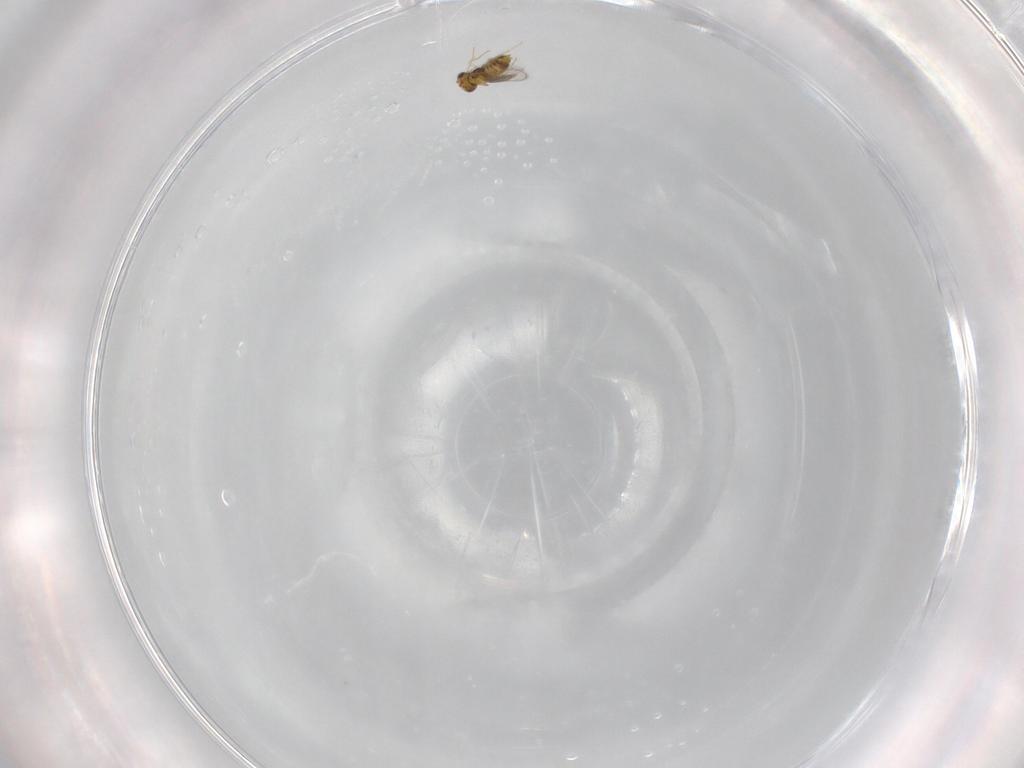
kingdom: Animalia
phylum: Arthropoda
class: Insecta
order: Hymenoptera
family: Aphelinidae
